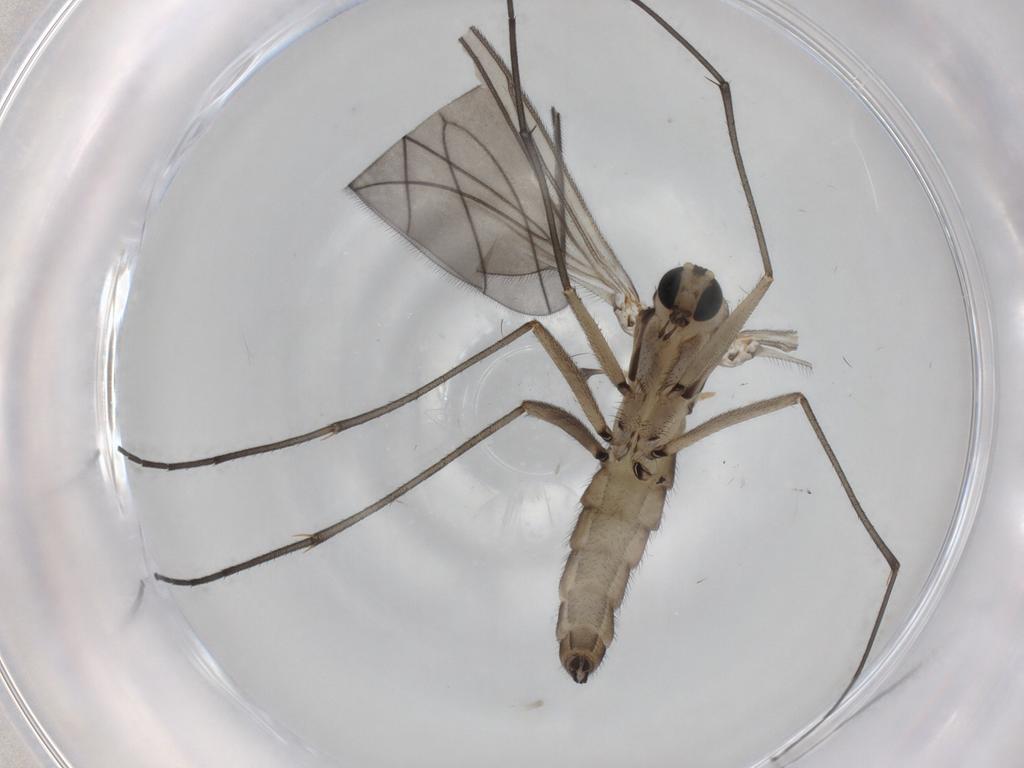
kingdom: Animalia
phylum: Arthropoda
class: Insecta
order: Diptera
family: Sciaridae
